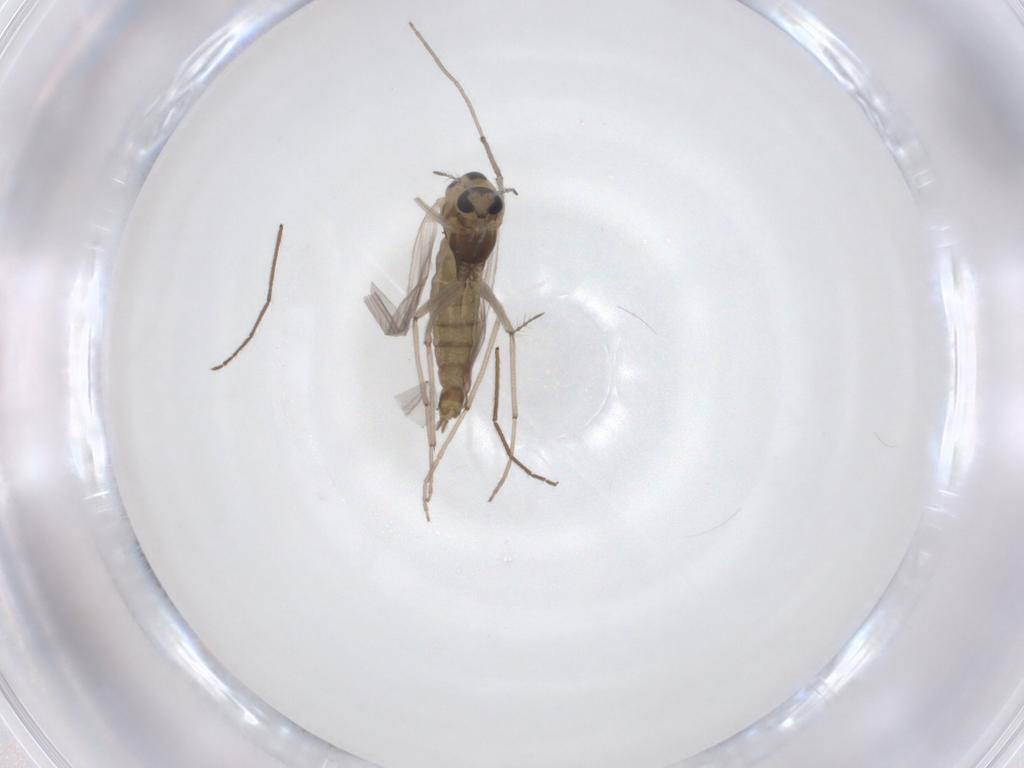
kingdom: Animalia
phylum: Arthropoda
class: Insecta
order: Diptera
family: Chironomidae
